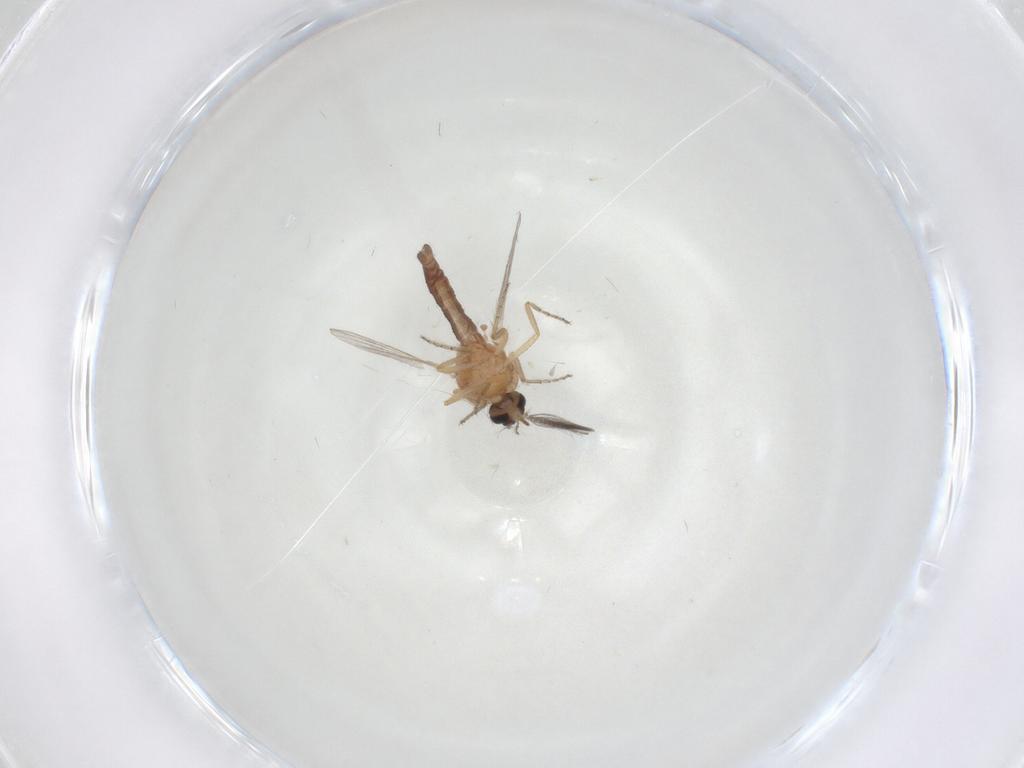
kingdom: Animalia
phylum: Arthropoda
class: Insecta
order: Diptera
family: Ceratopogonidae
